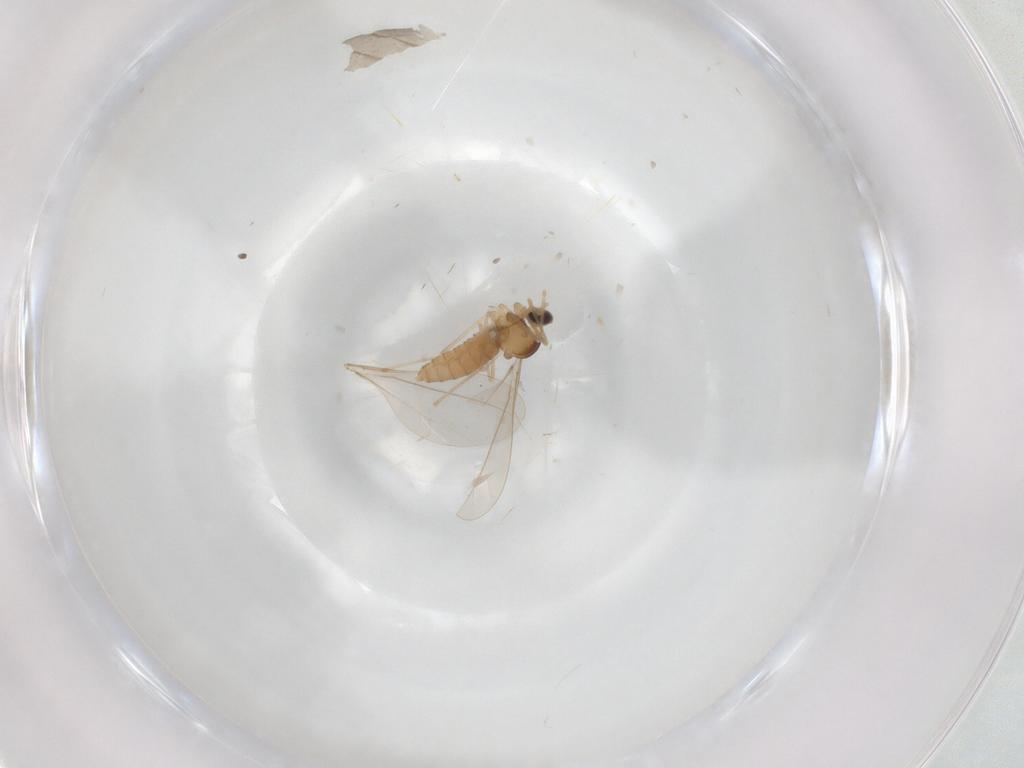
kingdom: Animalia
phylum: Arthropoda
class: Insecta
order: Diptera
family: Cecidomyiidae
